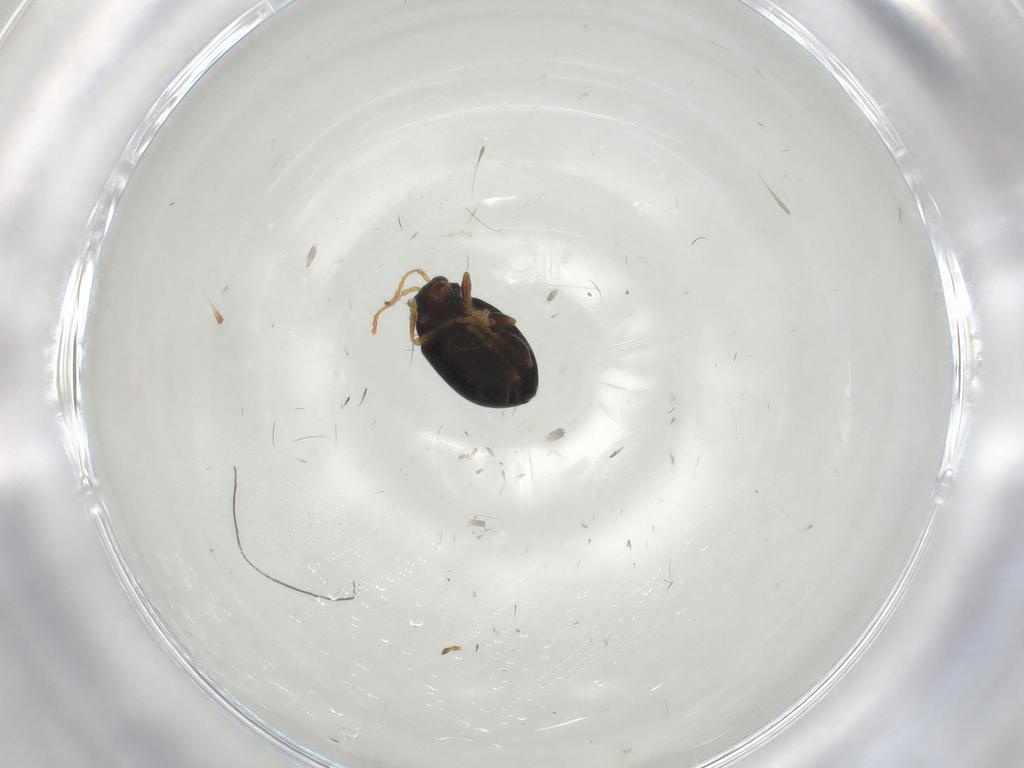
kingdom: Animalia
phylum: Arthropoda
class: Insecta
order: Coleoptera
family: Chrysomelidae
